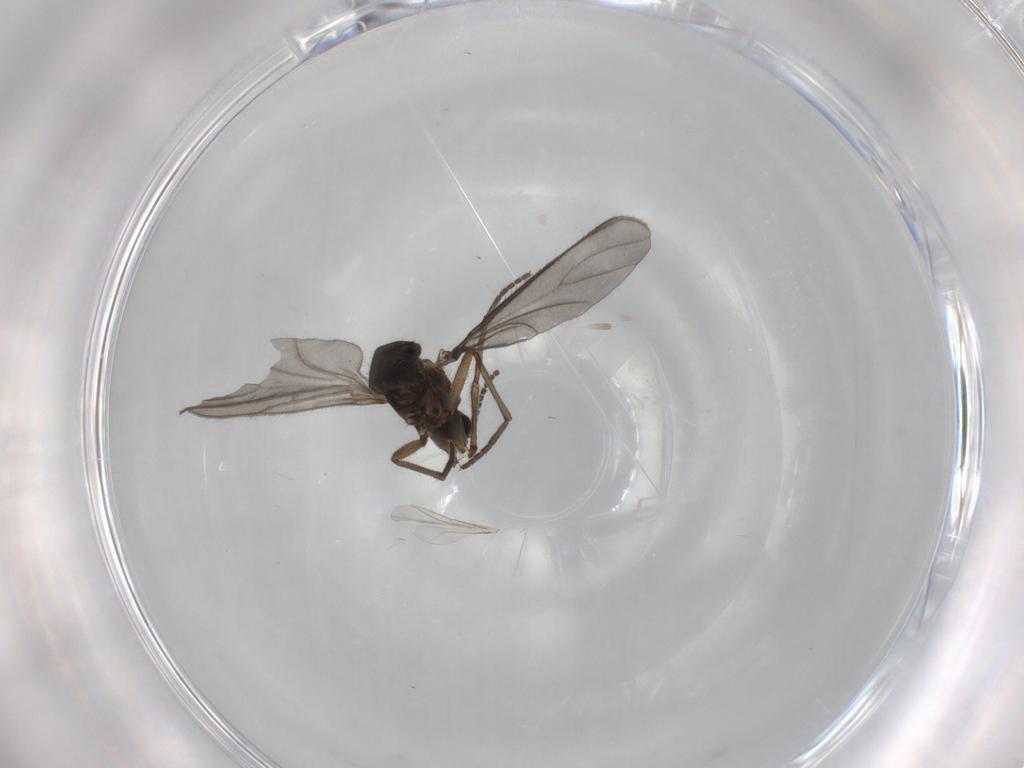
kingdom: Animalia
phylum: Arthropoda
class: Insecta
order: Diptera
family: Sciaridae
